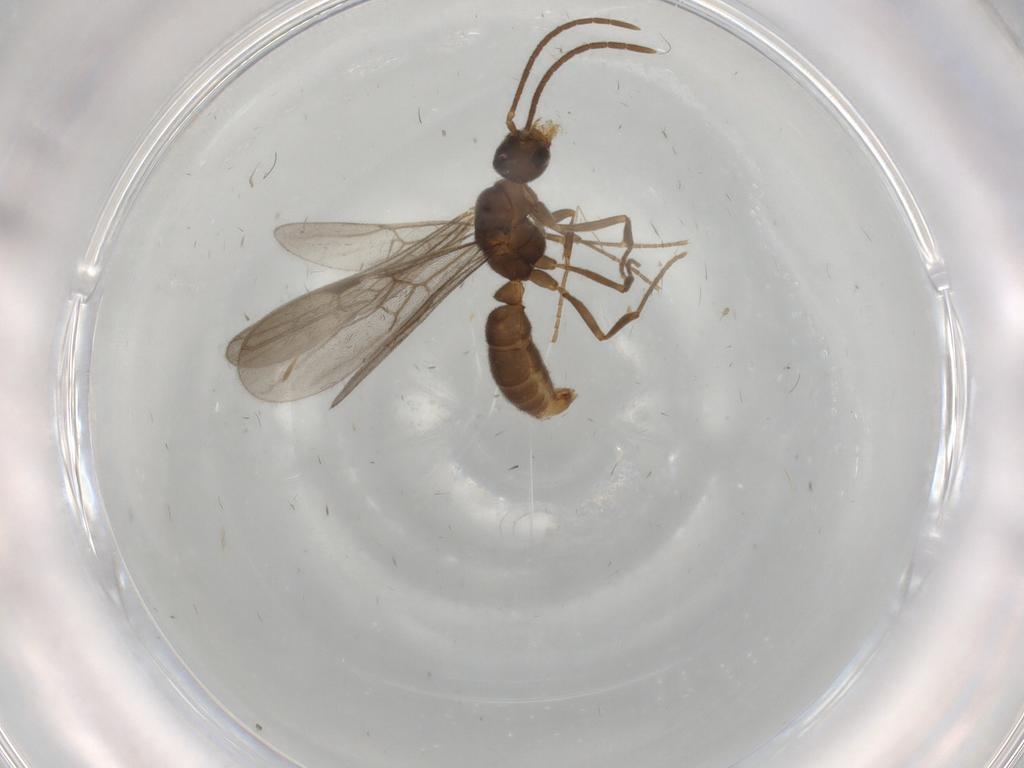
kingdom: Animalia
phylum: Arthropoda
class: Insecta
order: Hymenoptera
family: Formicidae
